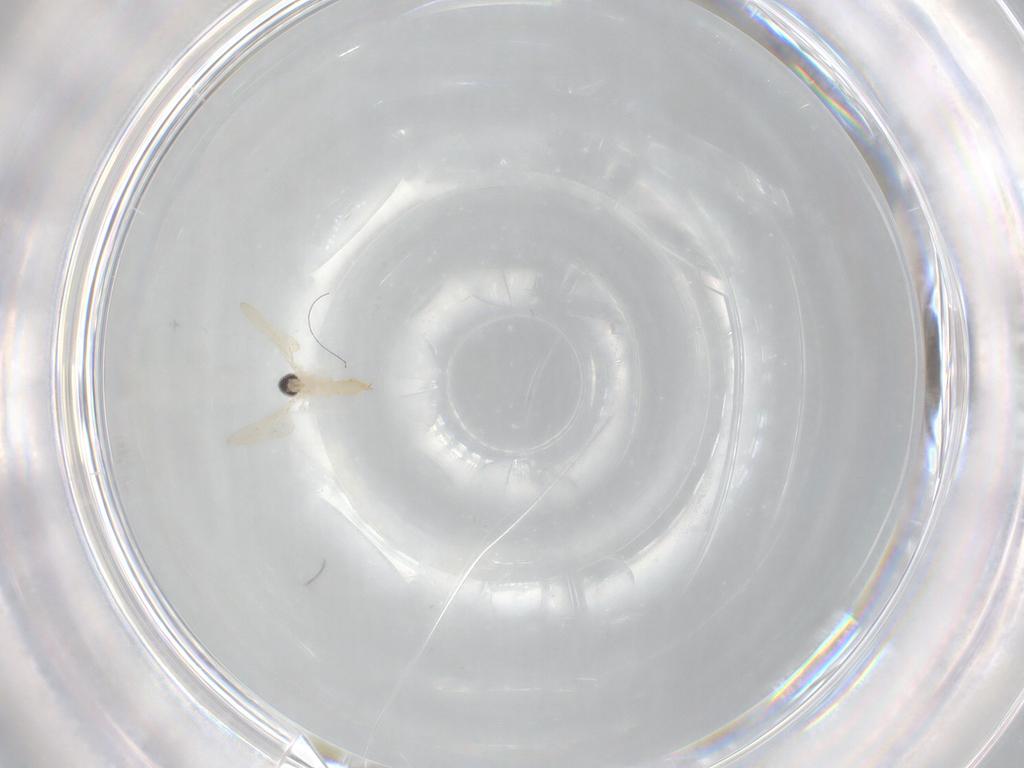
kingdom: Animalia
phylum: Arthropoda
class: Insecta
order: Diptera
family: Cecidomyiidae
